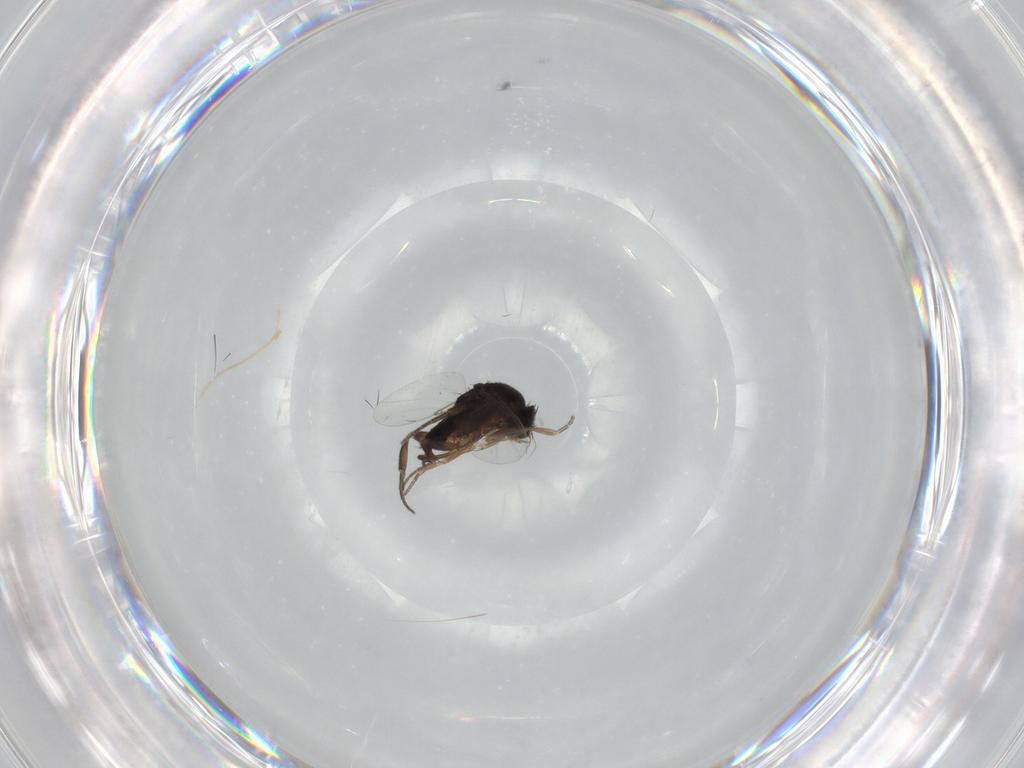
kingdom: Animalia
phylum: Arthropoda
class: Insecta
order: Diptera
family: Phoridae
